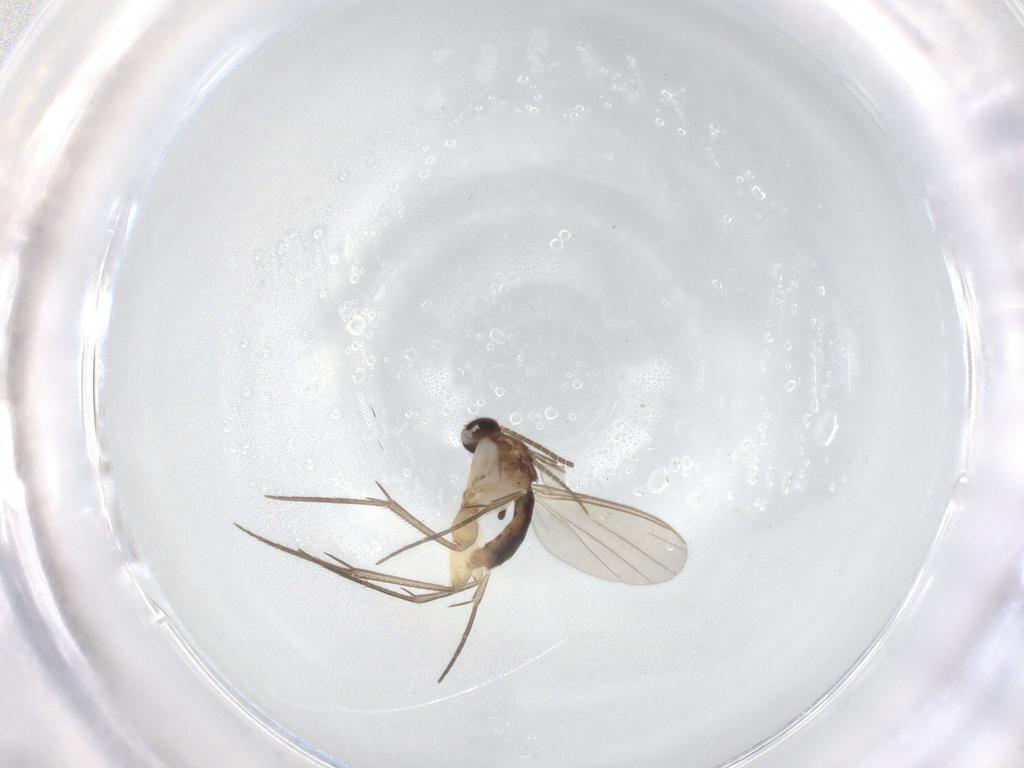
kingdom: Animalia
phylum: Arthropoda
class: Insecta
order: Diptera
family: Mycetophilidae
